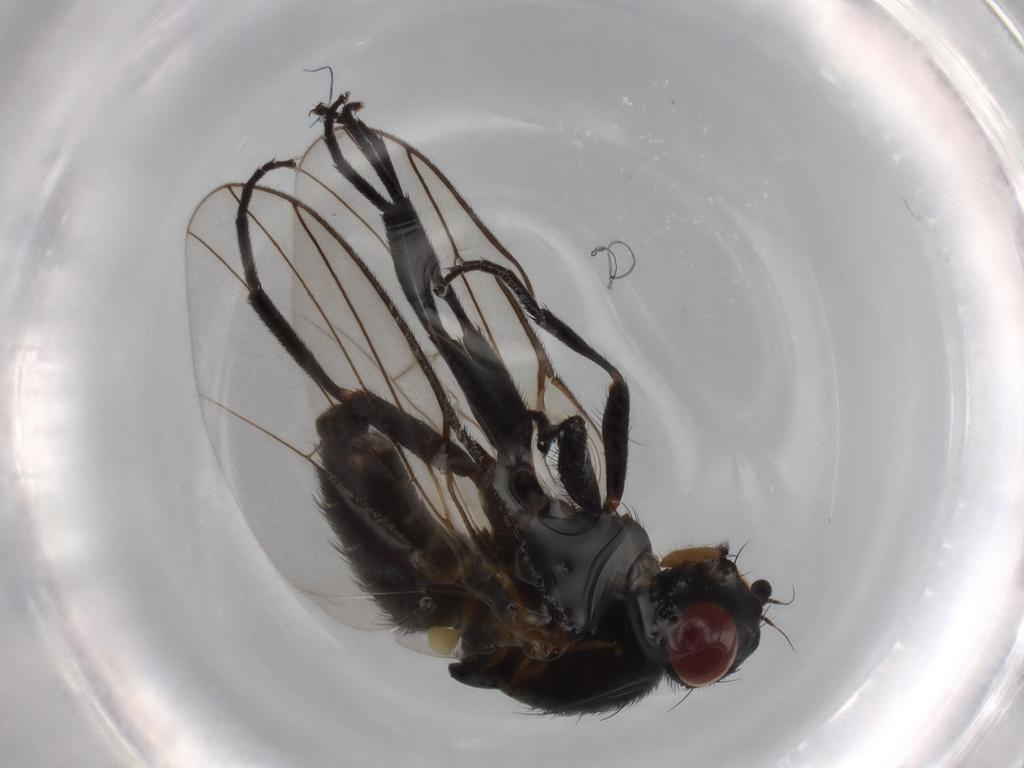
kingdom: Animalia
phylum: Arthropoda
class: Insecta
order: Diptera
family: Agromyzidae
